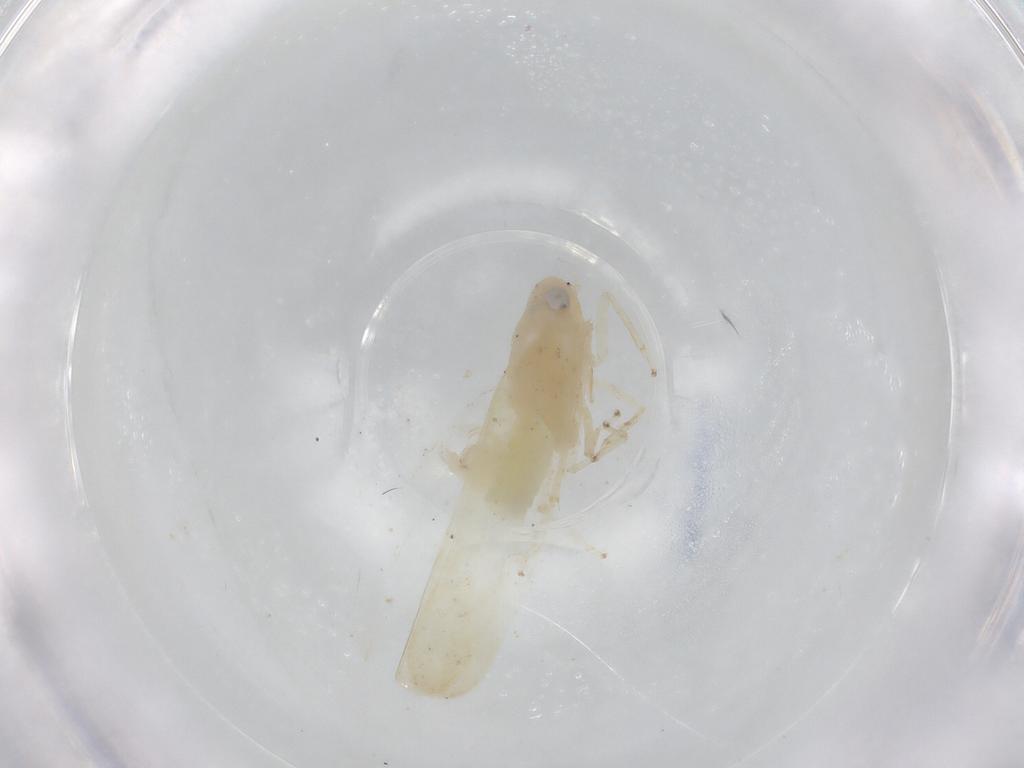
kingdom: Animalia
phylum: Arthropoda
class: Insecta
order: Hemiptera
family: Cicadellidae
